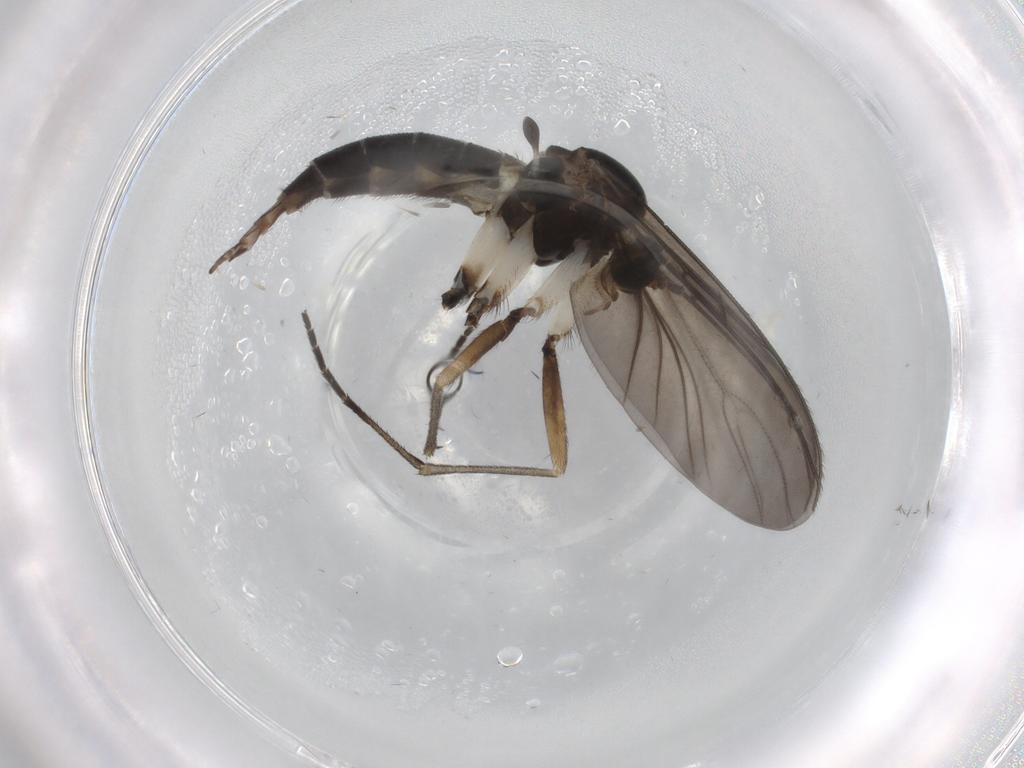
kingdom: Animalia
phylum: Arthropoda
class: Insecta
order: Diptera
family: Sciaridae
